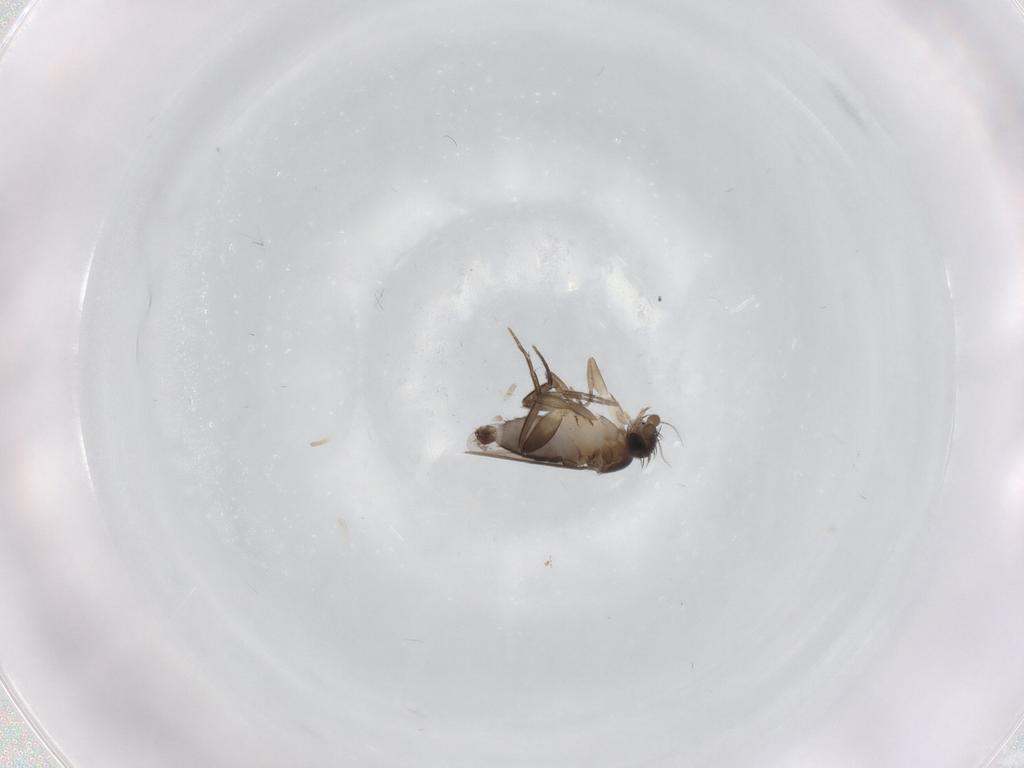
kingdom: Animalia
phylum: Arthropoda
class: Insecta
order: Diptera
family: Phoridae
